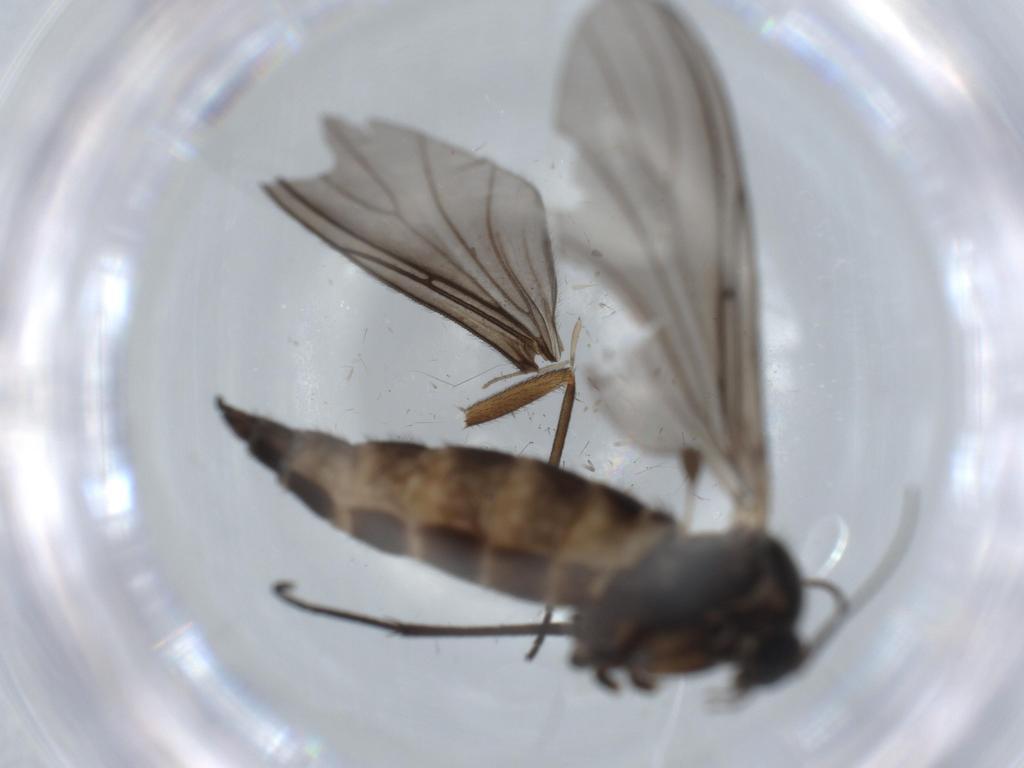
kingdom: Animalia
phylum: Arthropoda
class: Insecta
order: Diptera
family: Sciaridae
